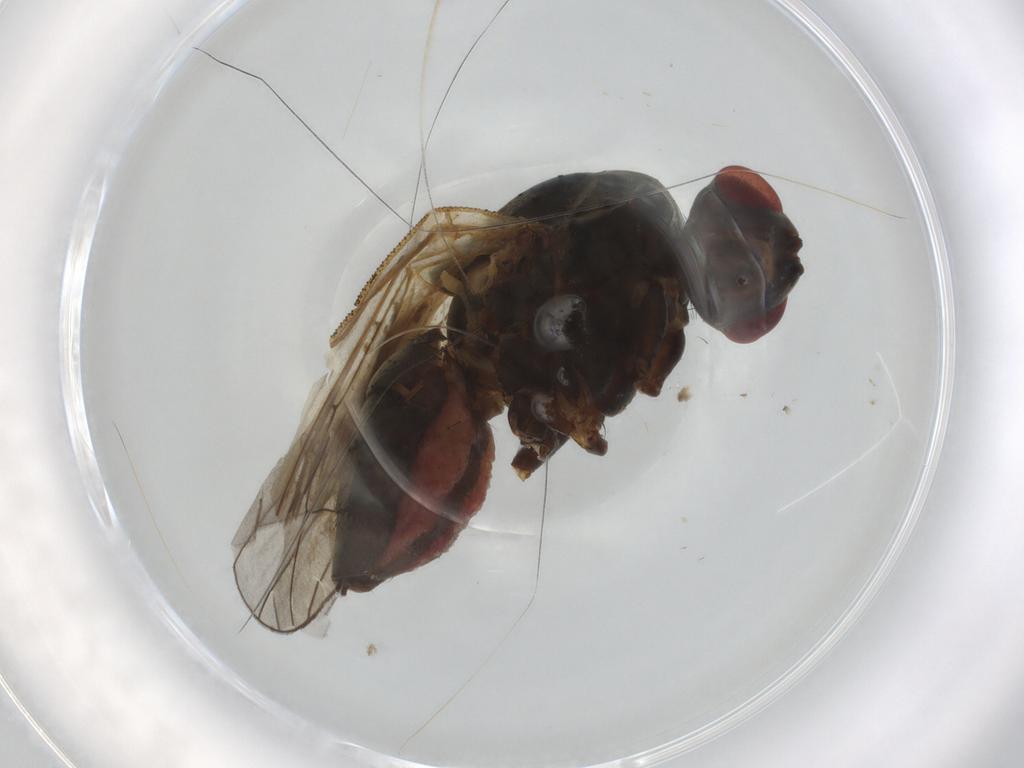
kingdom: Animalia
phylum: Arthropoda
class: Insecta
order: Diptera
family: Anthomyiidae
